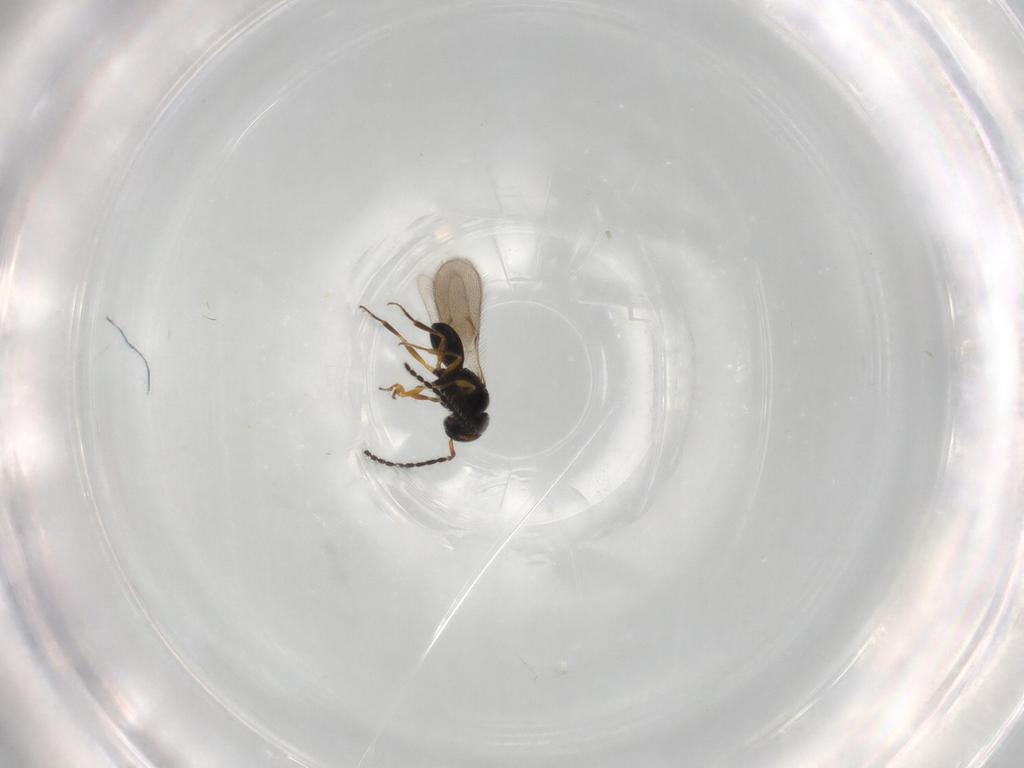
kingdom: Animalia
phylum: Arthropoda
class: Insecta
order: Hymenoptera
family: Scelionidae
